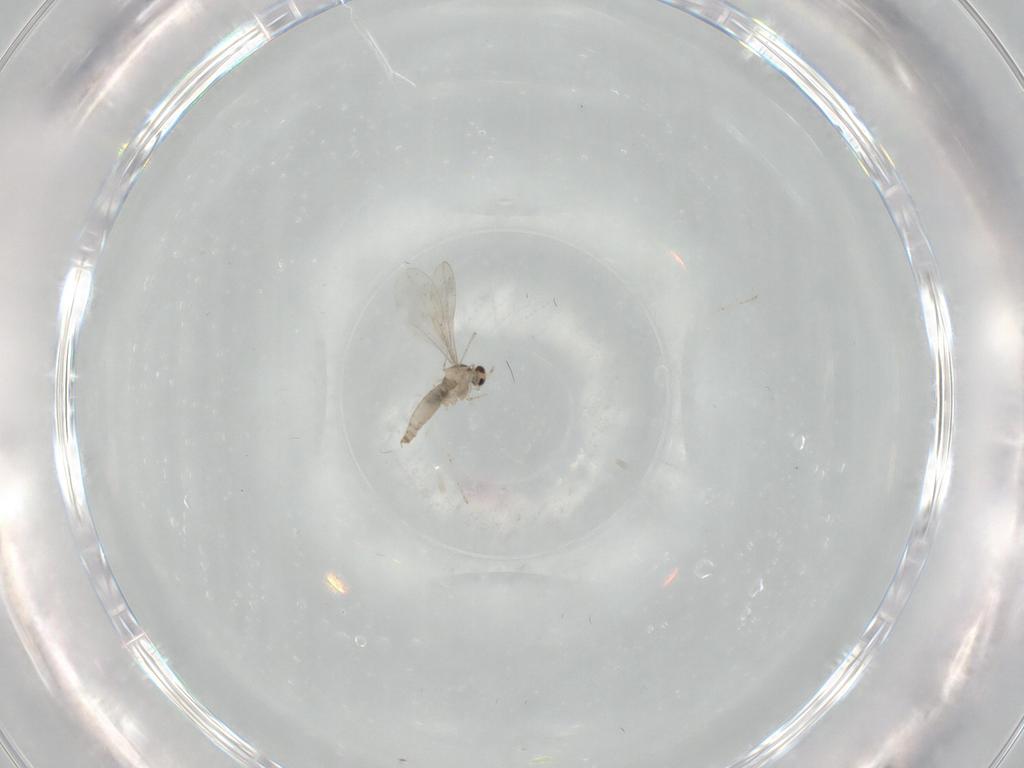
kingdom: Animalia
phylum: Arthropoda
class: Insecta
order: Diptera
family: Cecidomyiidae
